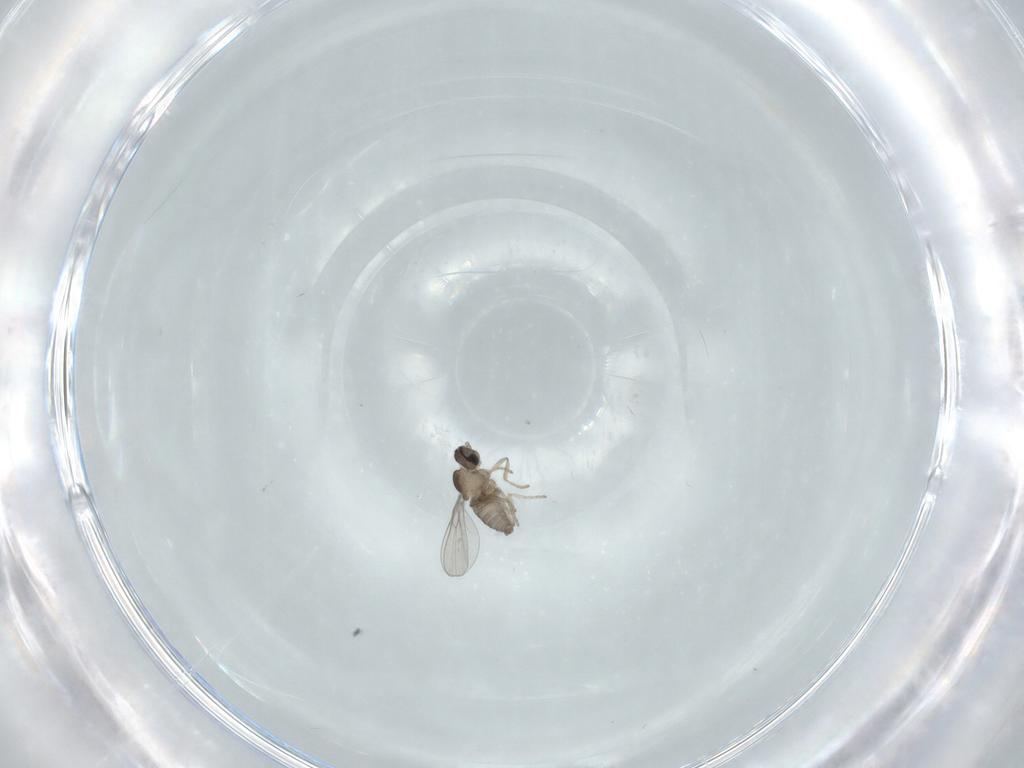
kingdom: Animalia
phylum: Arthropoda
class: Insecta
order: Diptera
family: Cecidomyiidae
